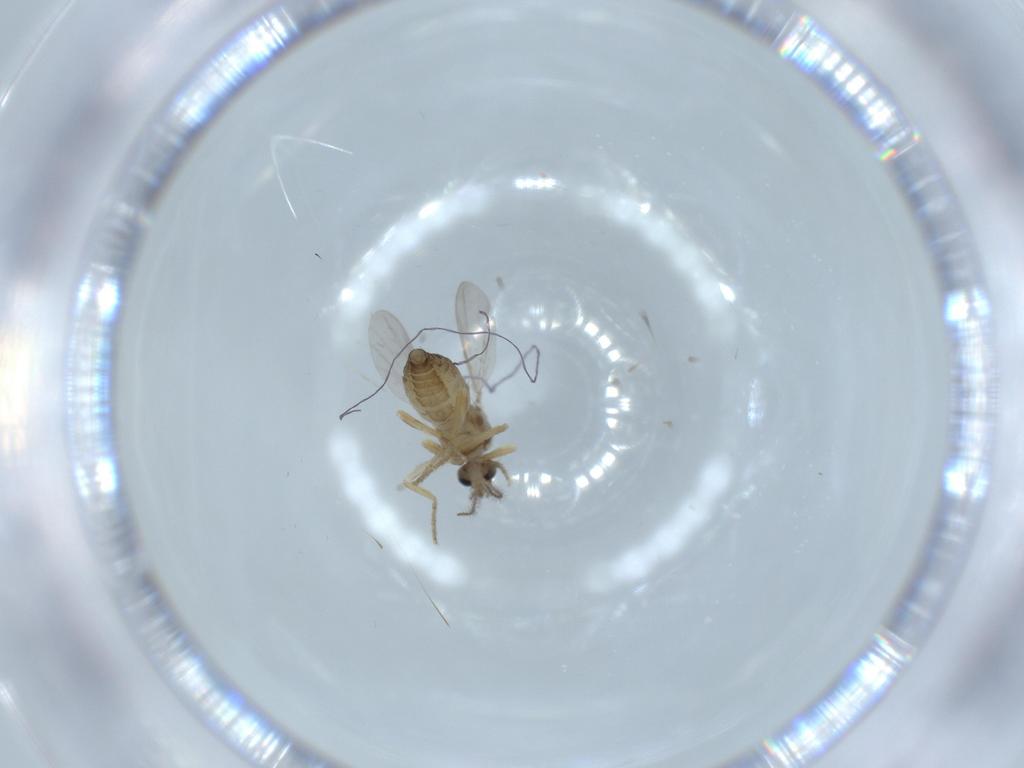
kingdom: Animalia
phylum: Arthropoda
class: Insecta
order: Diptera
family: Ceratopogonidae
